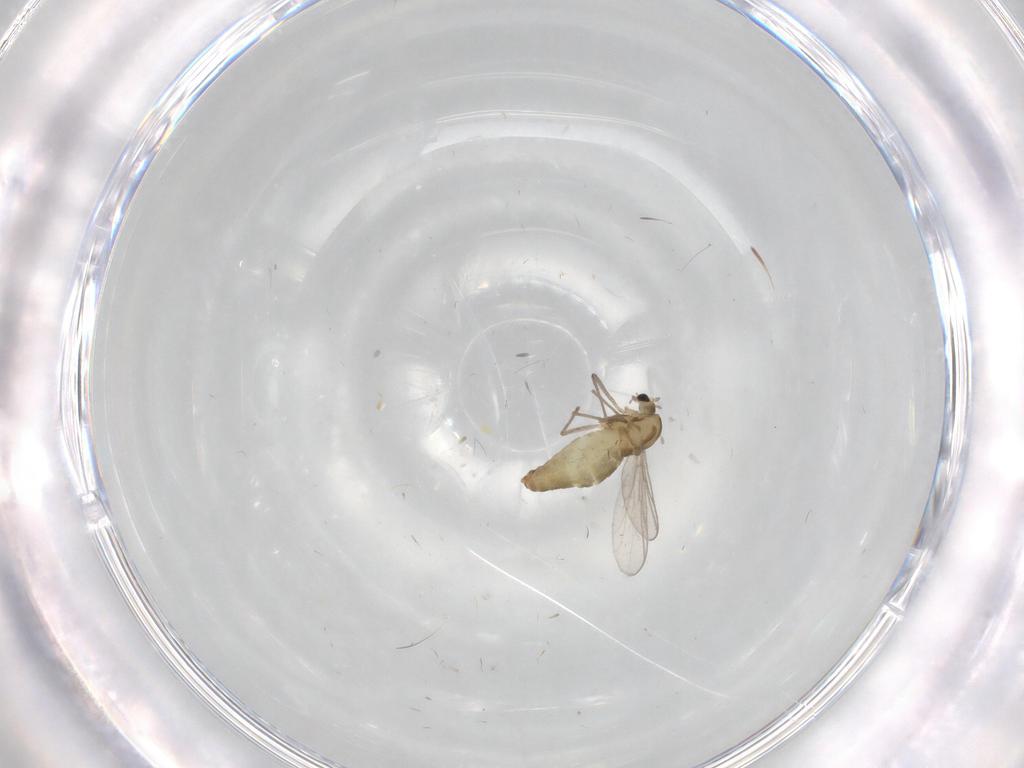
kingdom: Animalia
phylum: Arthropoda
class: Insecta
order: Diptera
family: Chironomidae
